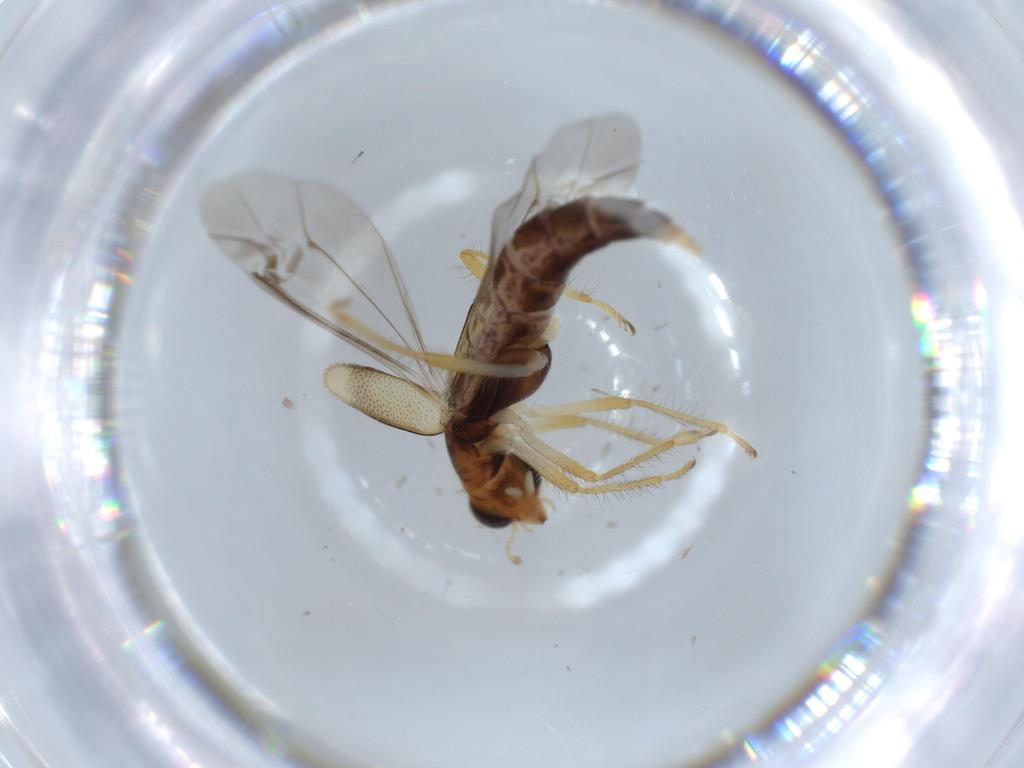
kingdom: Animalia
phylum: Arthropoda
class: Insecta
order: Coleoptera
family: Cleridae
